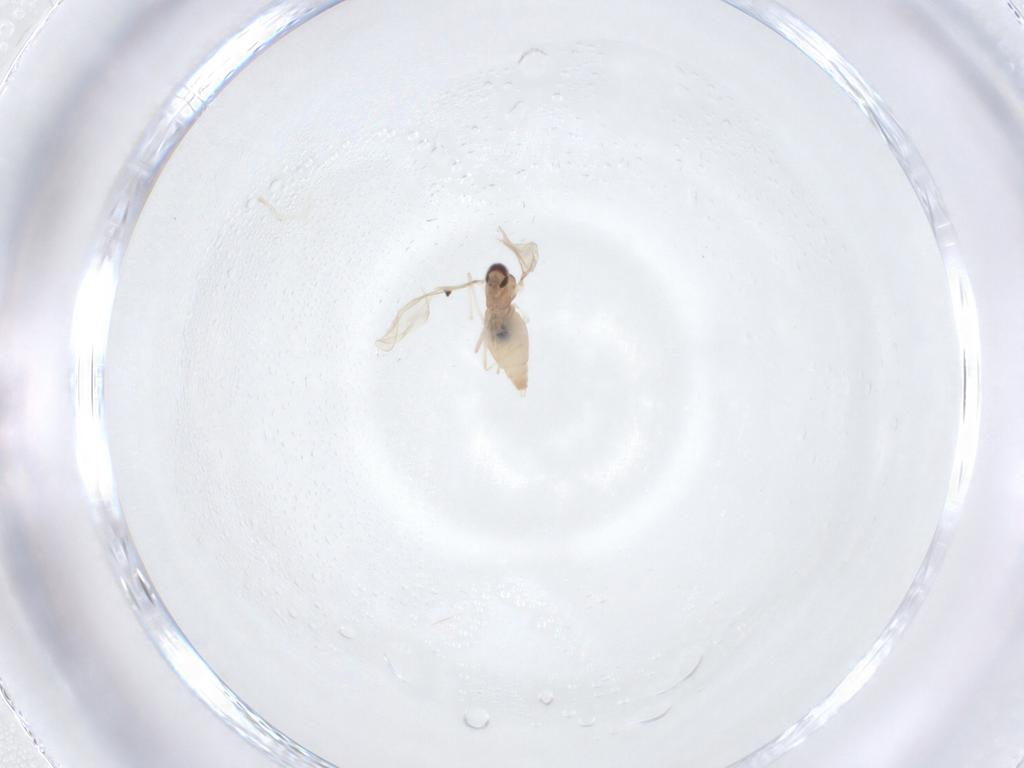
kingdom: Animalia
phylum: Arthropoda
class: Insecta
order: Diptera
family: Cecidomyiidae
